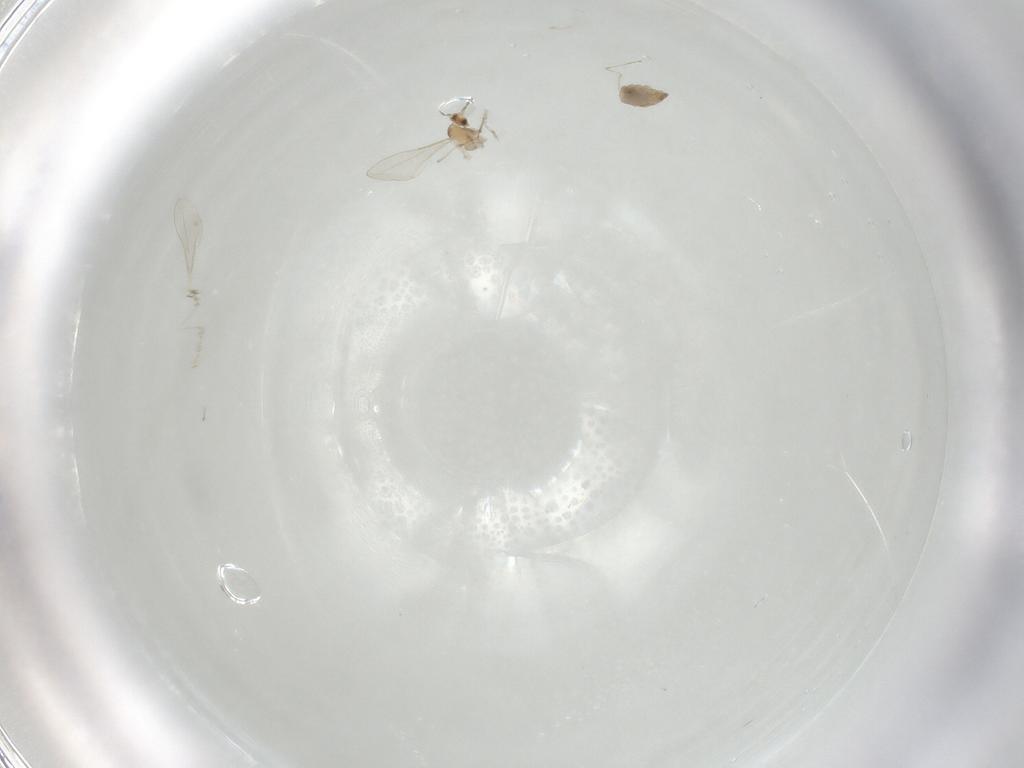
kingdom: Animalia
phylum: Arthropoda
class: Insecta
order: Diptera
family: Cecidomyiidae
